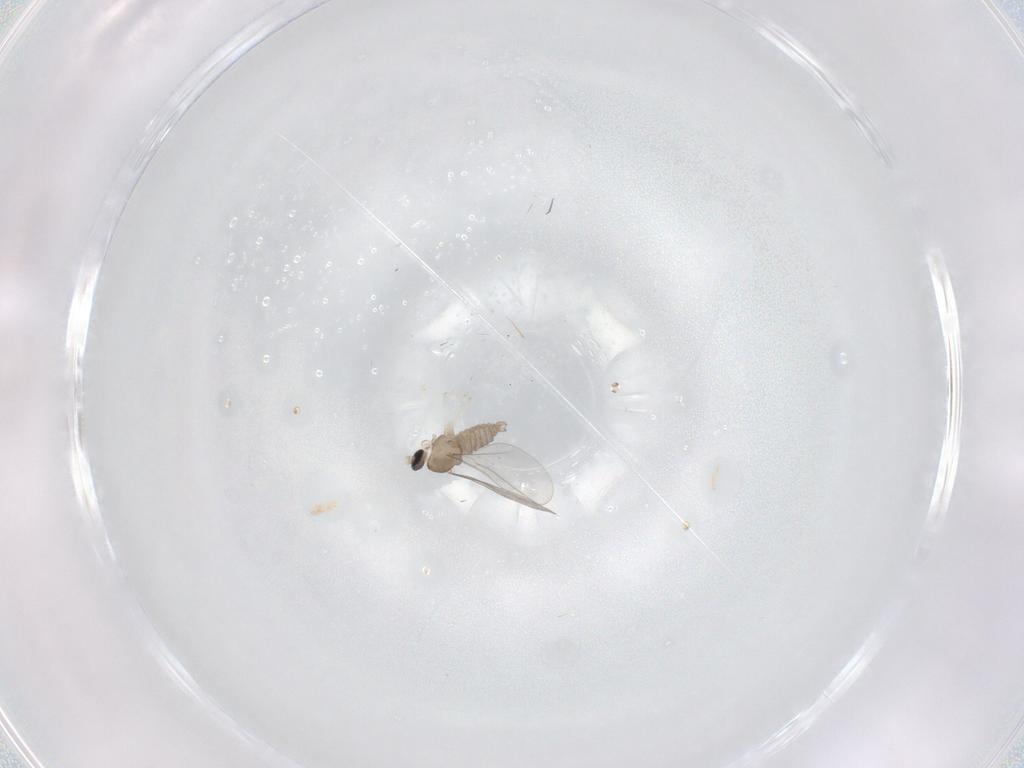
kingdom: Animalia
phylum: Arthropoda
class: Insecta
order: Diptera
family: Cecidomyiidae
